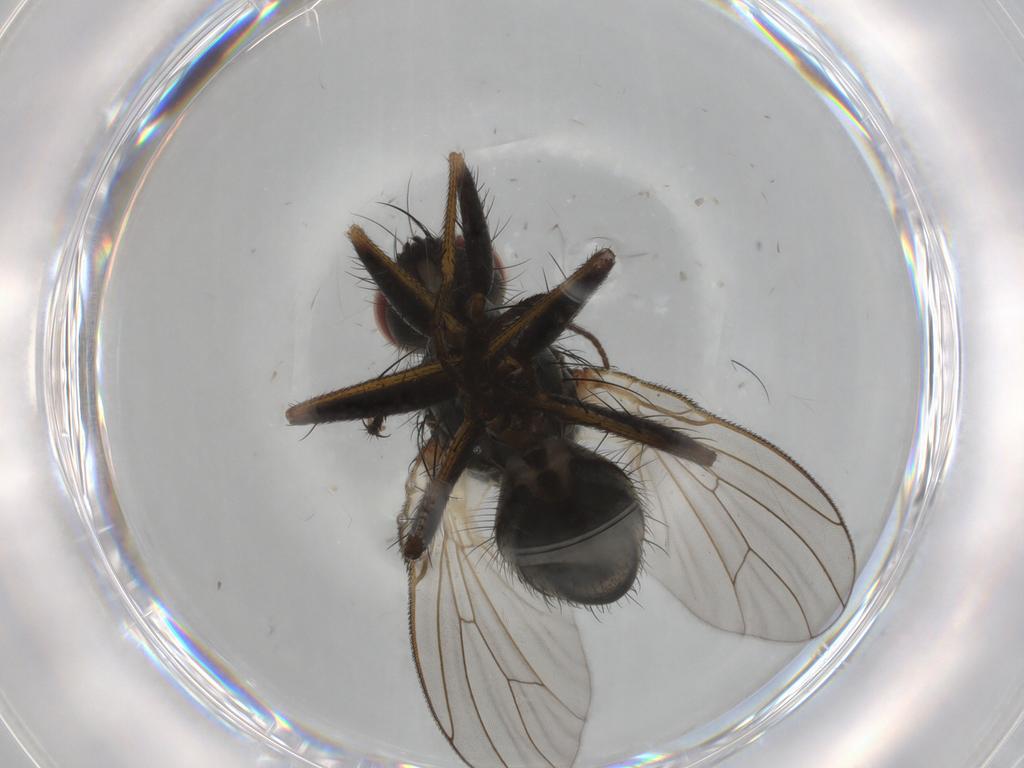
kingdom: Animalia
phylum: Arthropoda
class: Insecta
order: Diptera
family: Muscidae
